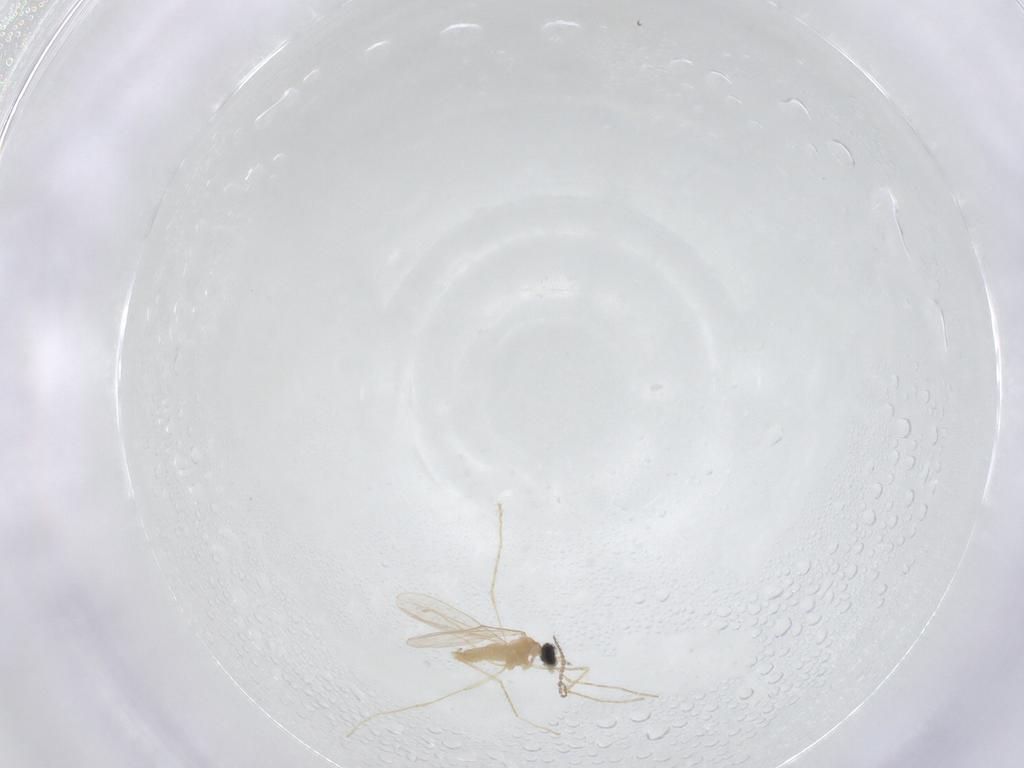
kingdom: Animalia
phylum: Arthropoda
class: Insecta
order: Diptera
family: Cecidomyiidae
